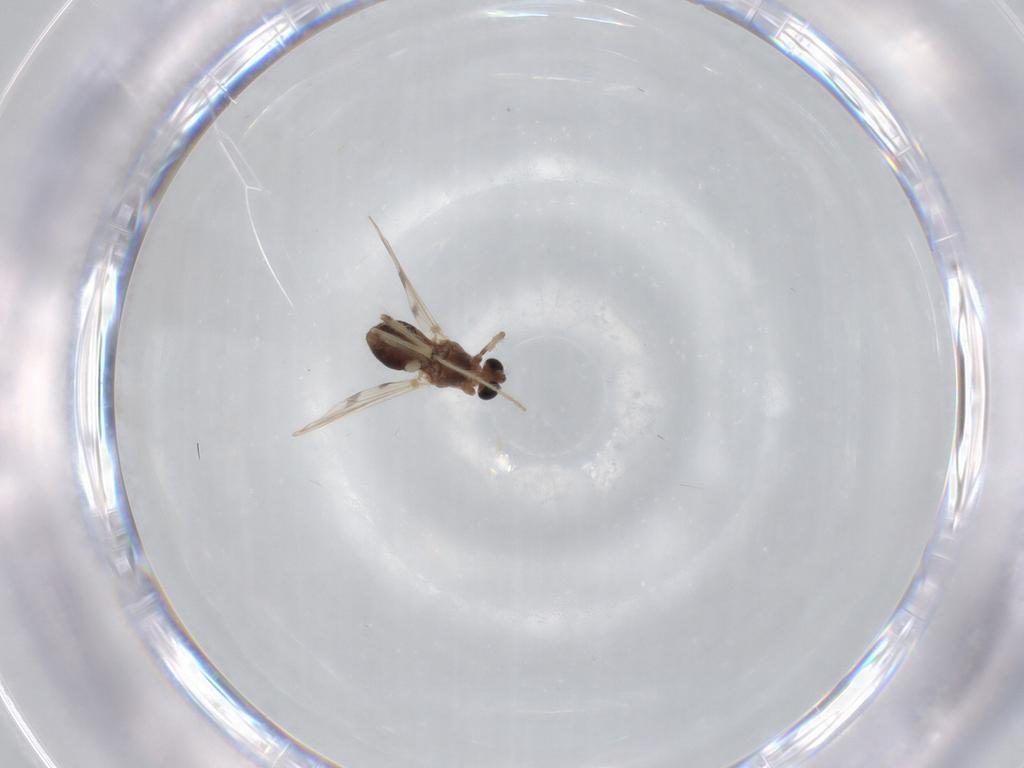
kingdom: Animalia
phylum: Arthropoda
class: Insecta
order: Diptera
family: Chironomidae
